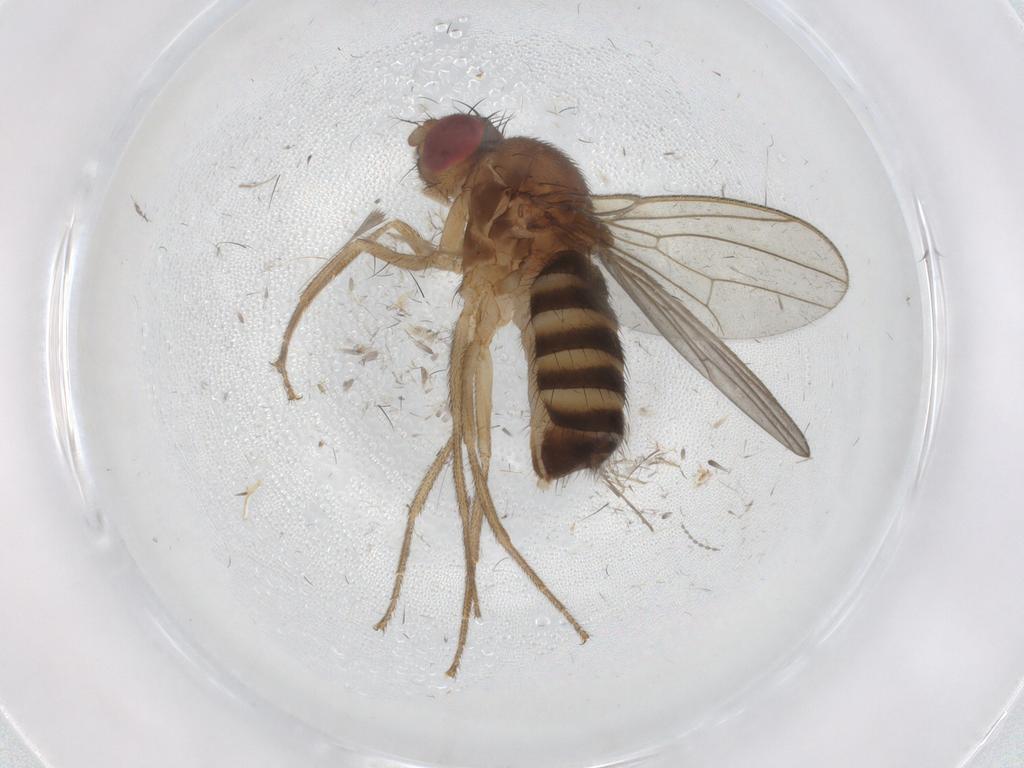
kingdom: Animalia
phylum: Arthropoda
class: Insecta
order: Diptera
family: Drosophilidae
